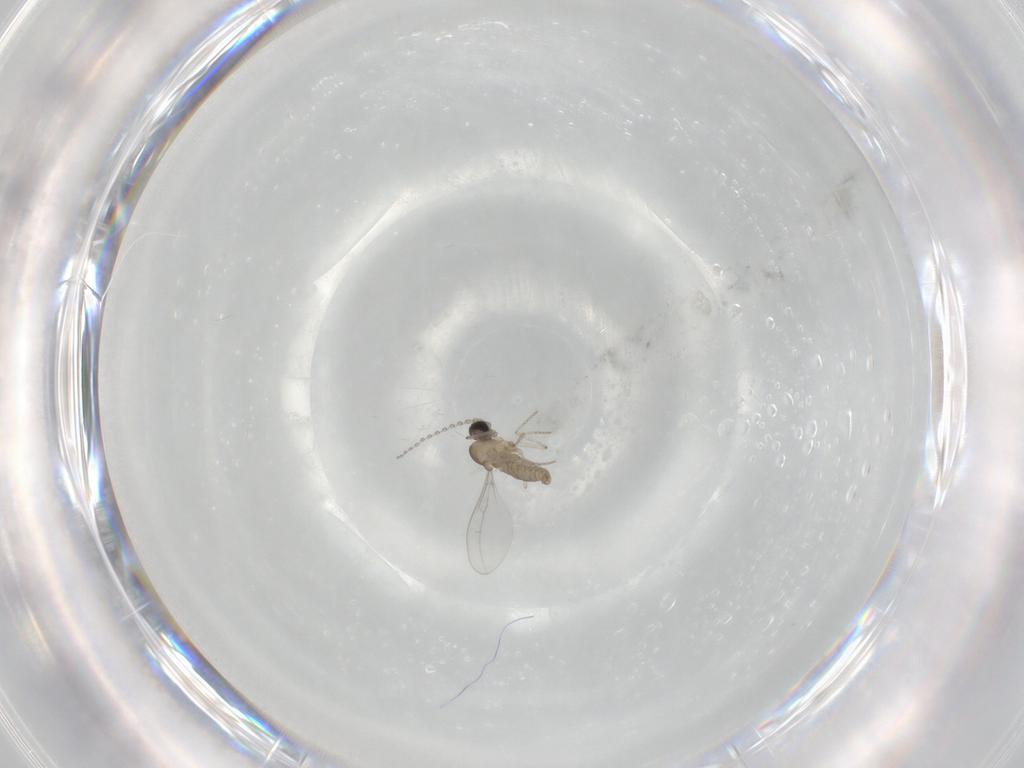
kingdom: Animalia
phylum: Arthropoda
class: Insecta
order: Diptera
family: Cecidomyiidae
